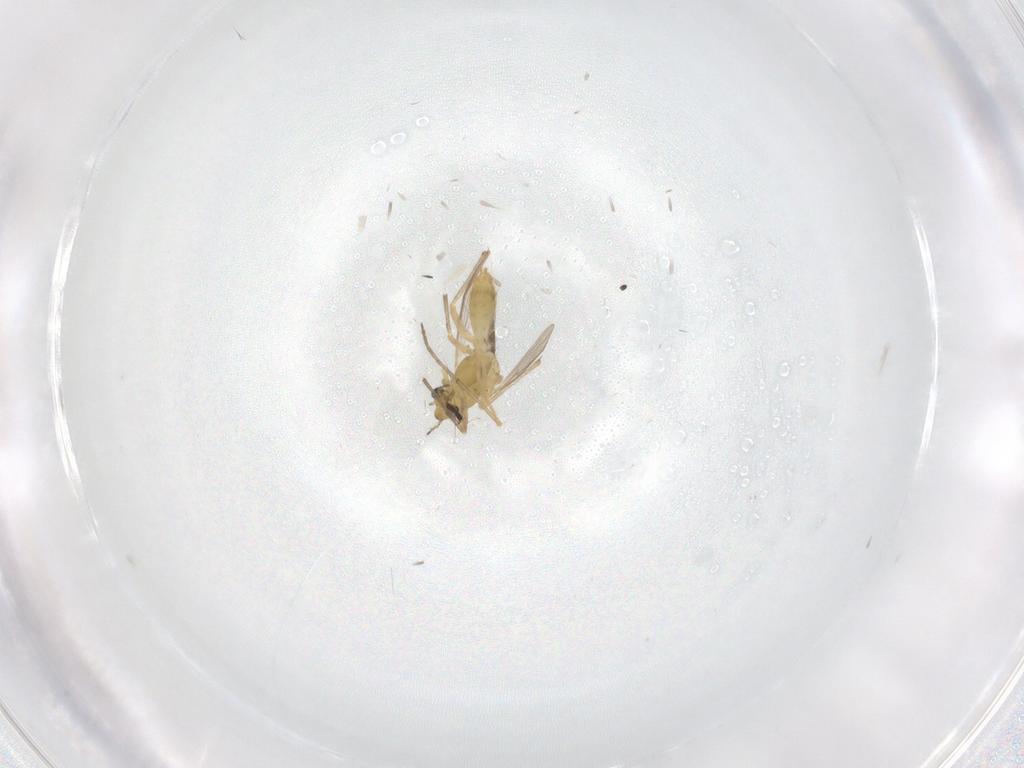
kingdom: Animalia
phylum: Arthropoda
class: Insecta
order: Diptera
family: Chironomidae
